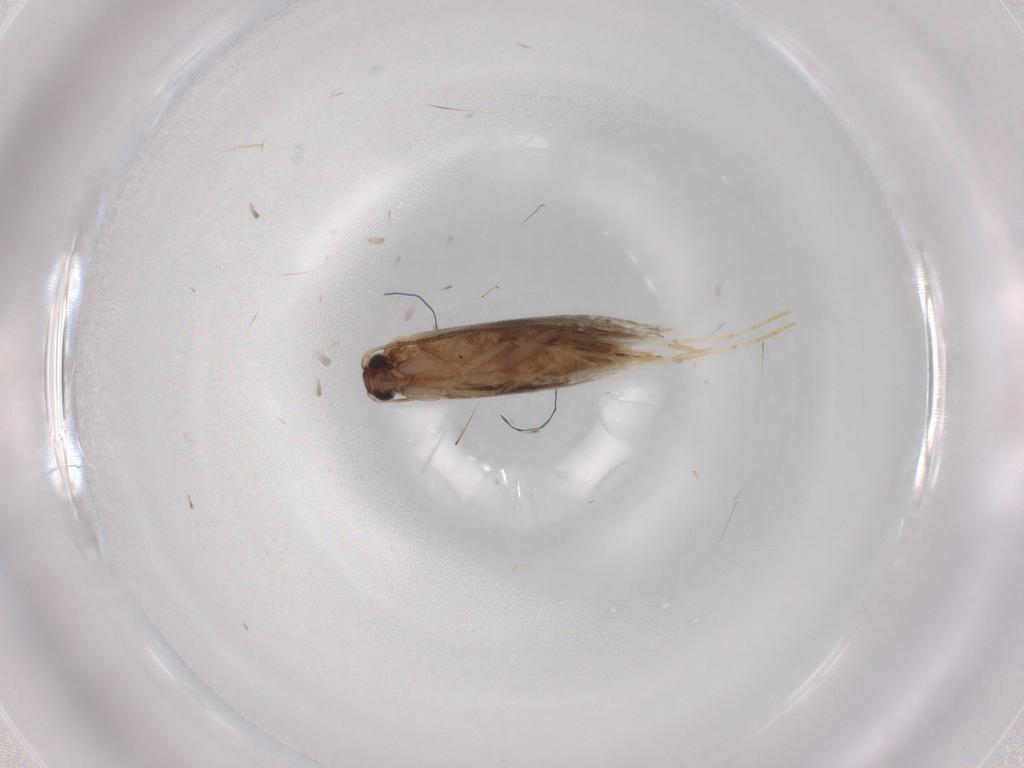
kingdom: Animalia
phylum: Arthropoda
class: Insecta
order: Lepidoptera
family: Tineidae
